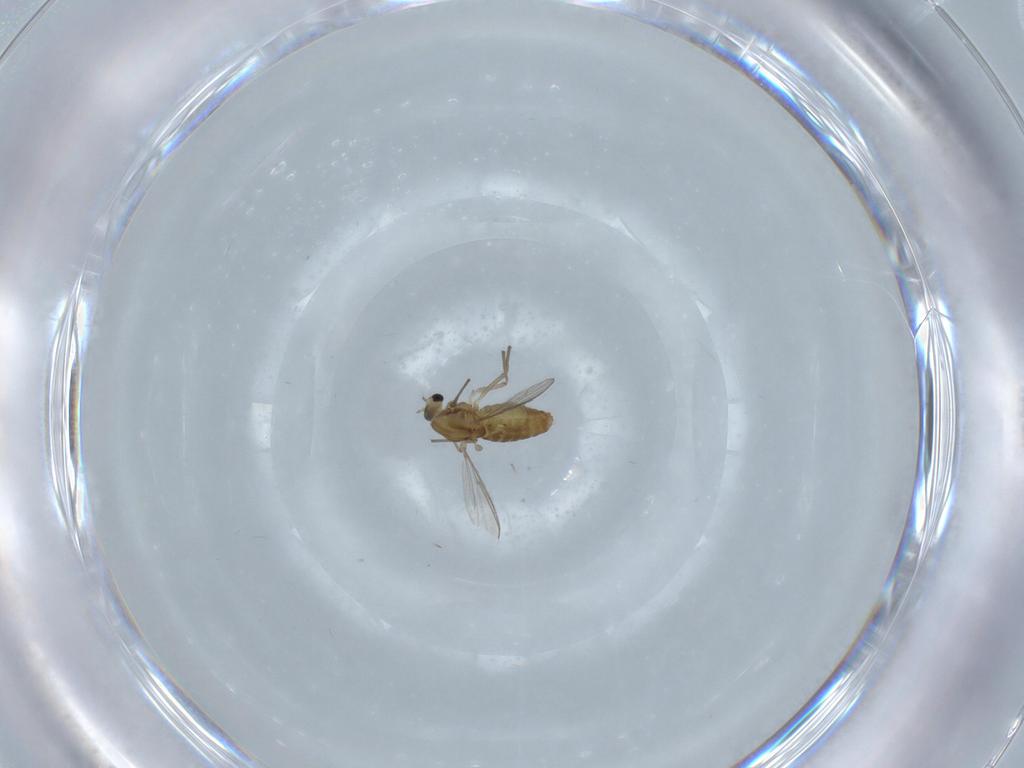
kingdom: Animalia
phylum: Arthropoda
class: Insecta
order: Diptera
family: Chironomidae
